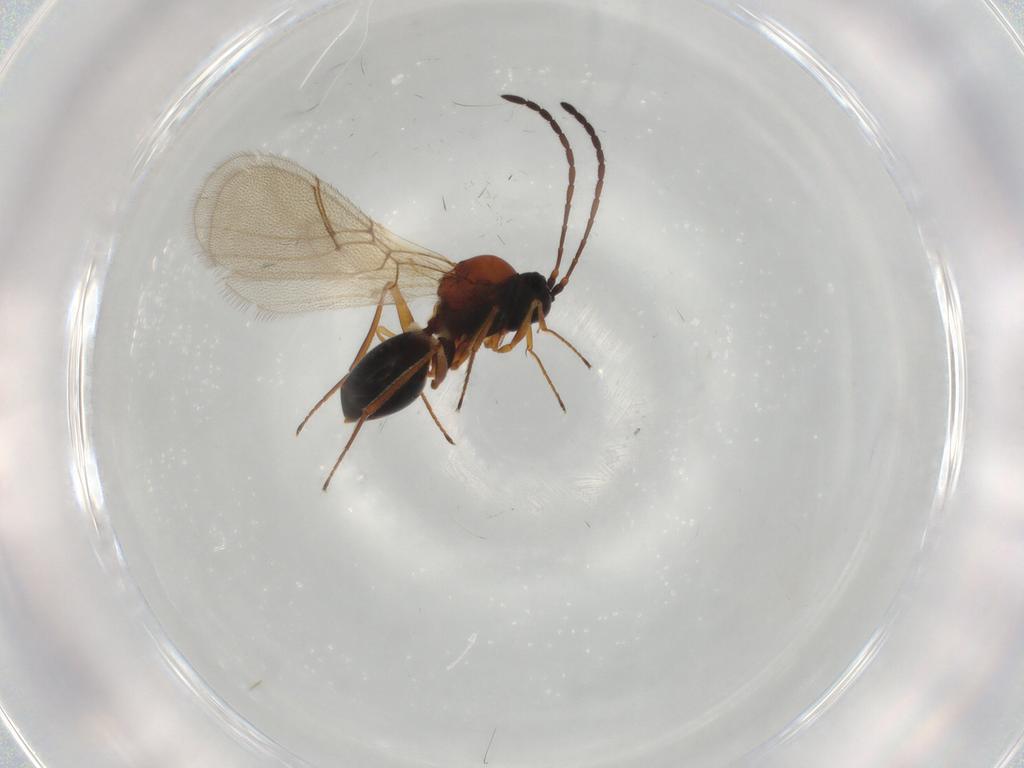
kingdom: Animalia
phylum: Arthropoda
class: Insecta
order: Hymenoptera
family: Figitidae
